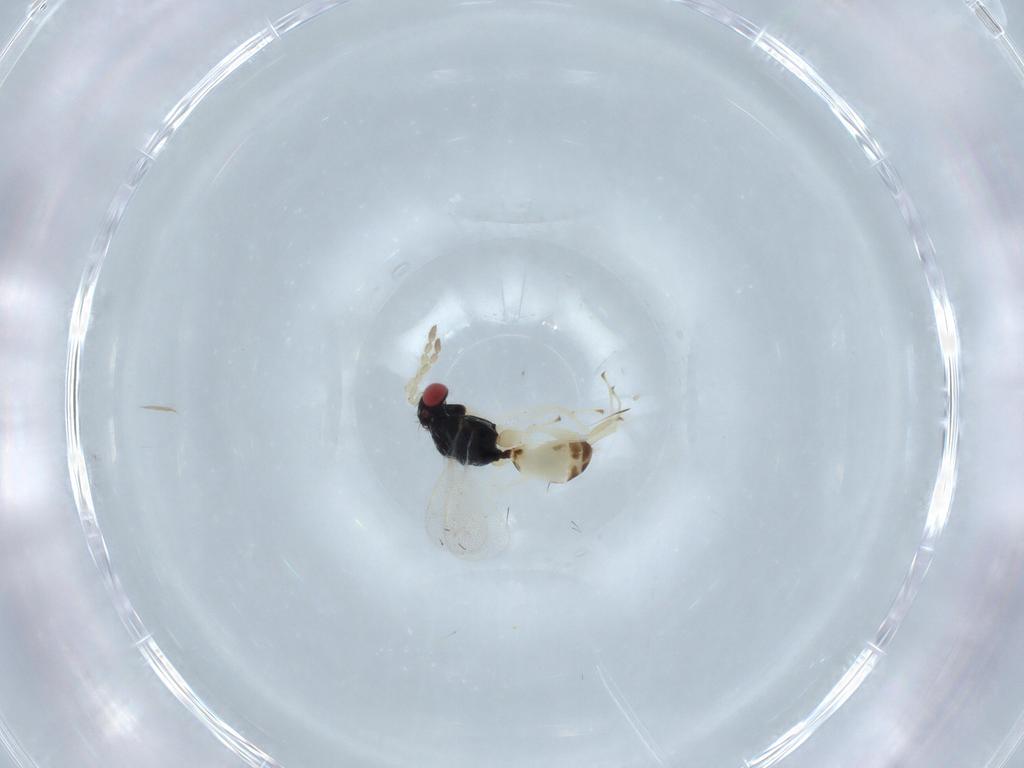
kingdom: Animalia
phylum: Arthropoda
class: Insecta
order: Hymenoptera
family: Eulophidae
